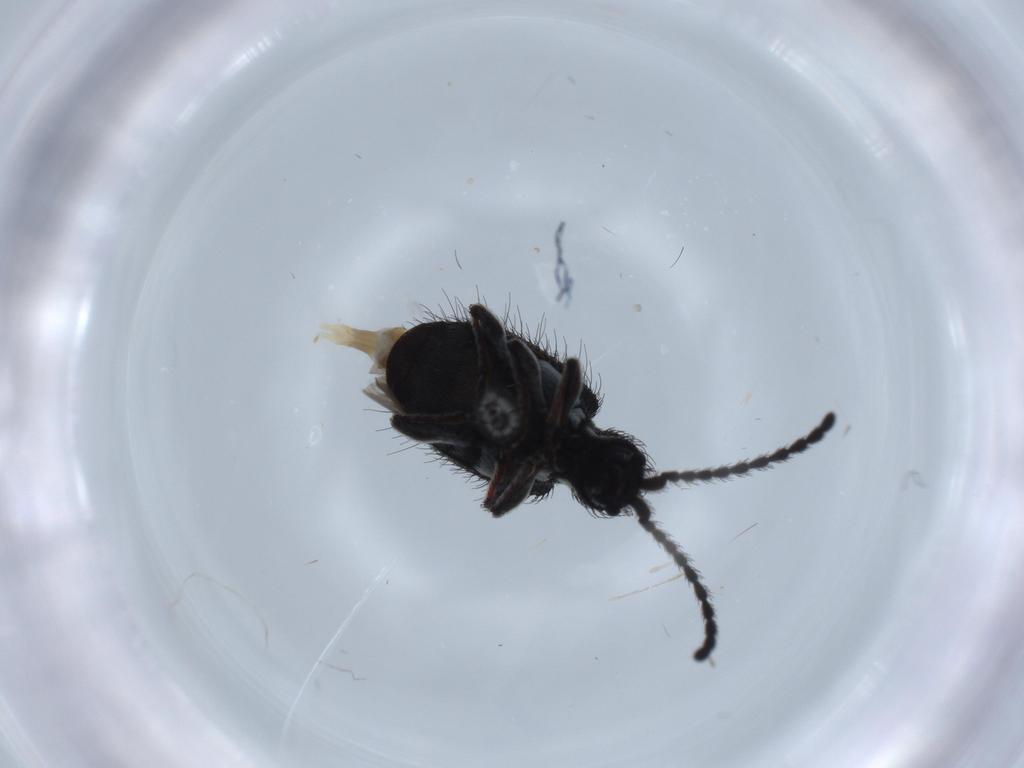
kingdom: Animalia
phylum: Arthropoda
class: Insecta
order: Coleoptera
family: Ptinidae
